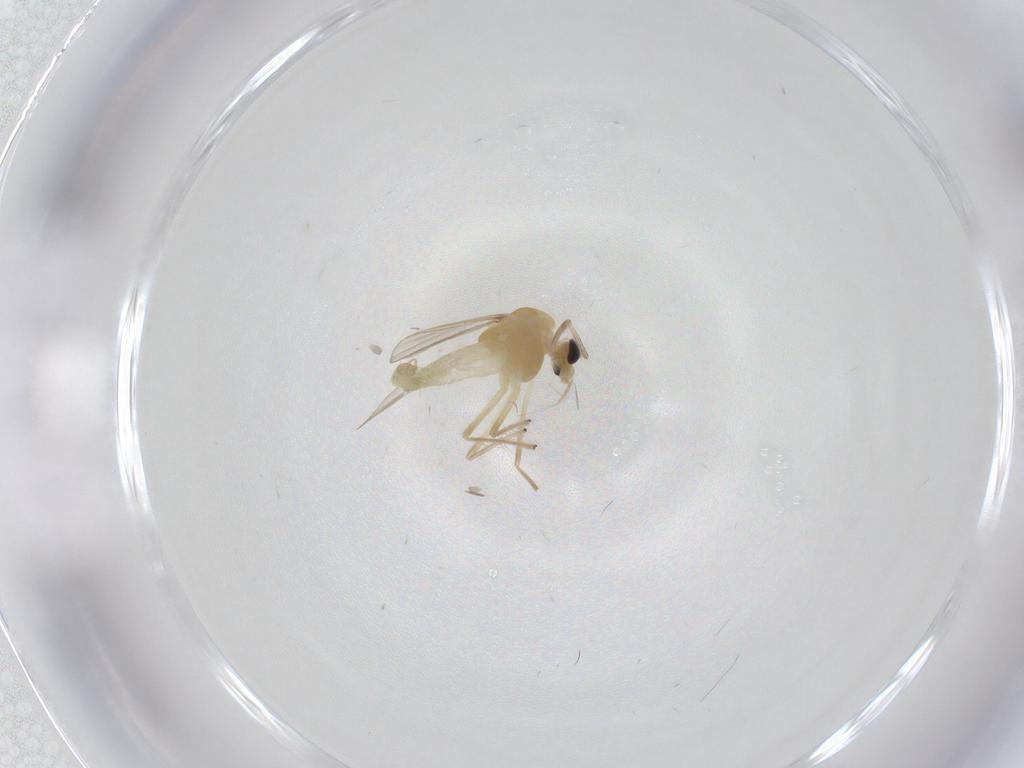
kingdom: Animalia
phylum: Arthropoda
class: Insecta
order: Diptera
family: Chironomidae
